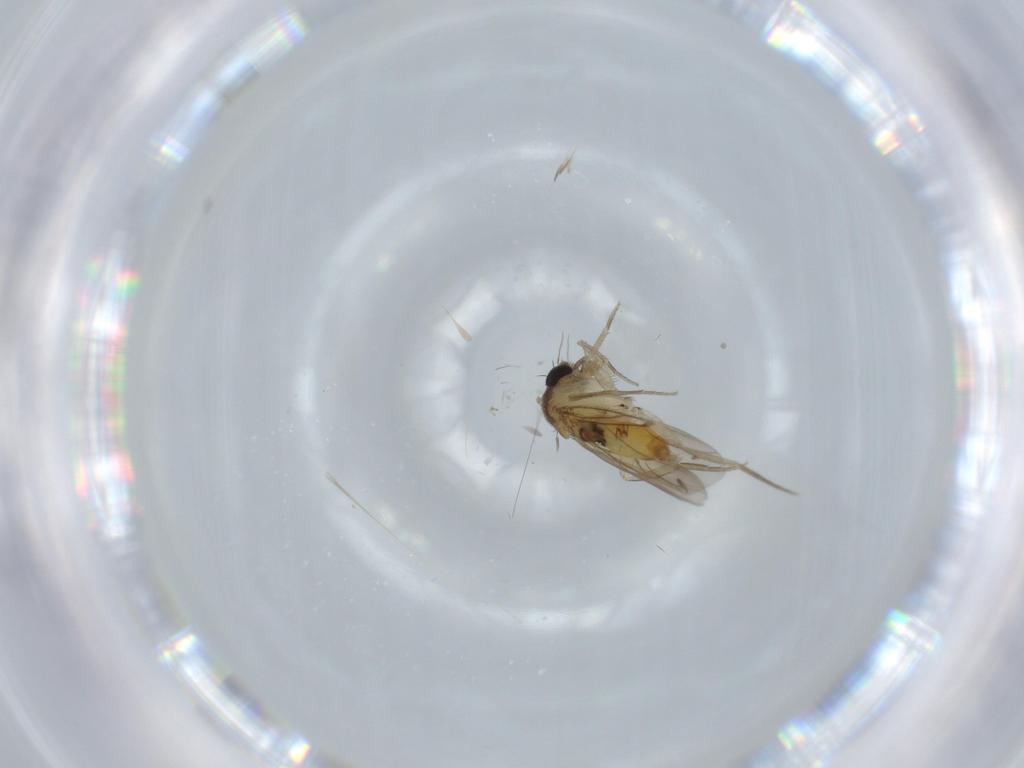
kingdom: Animalia
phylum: Arthropoda
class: Insecta
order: Diptera
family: Phoridae
